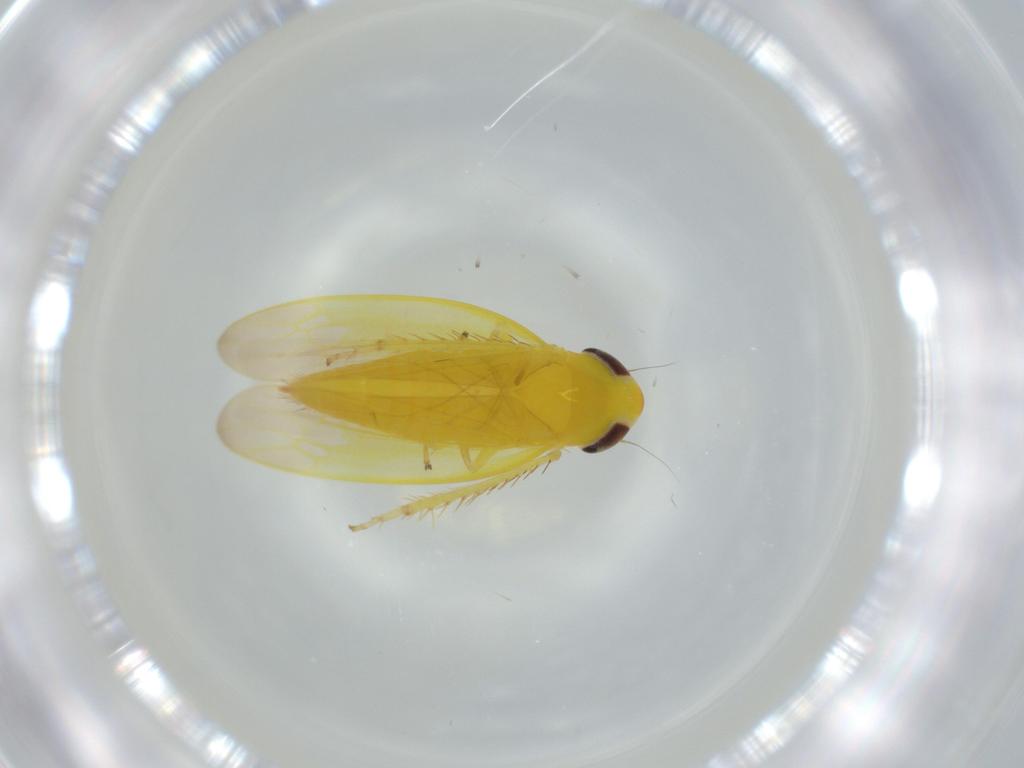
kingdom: Animalia
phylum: Arthropoda
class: Insecta
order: Hemiptera
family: Cicadellidae
